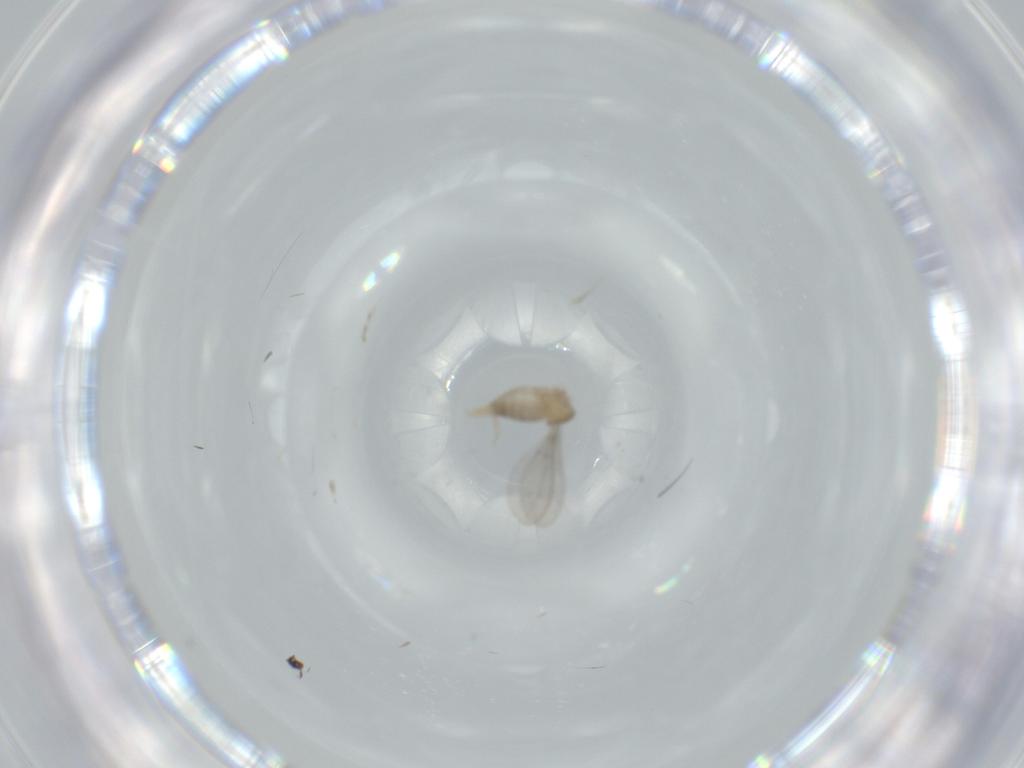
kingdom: Animalia
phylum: Arthropoda
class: Insecta
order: Diptera
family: Cecidomyiidae
